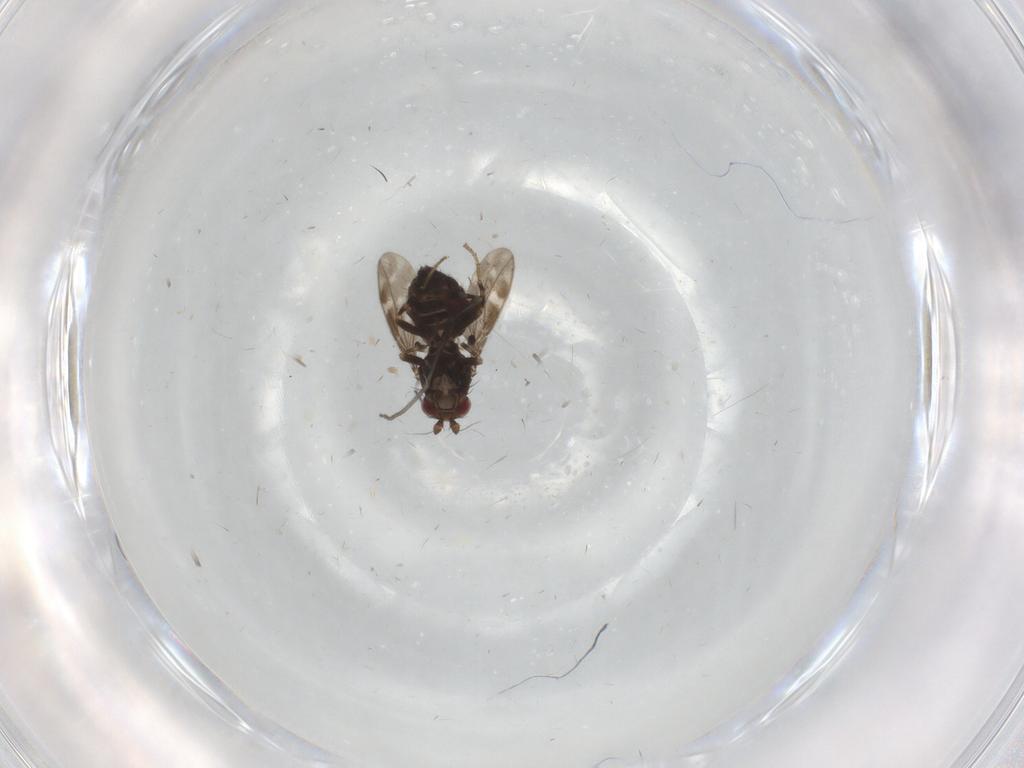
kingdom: Animalia
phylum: Arthropoda
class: Insecta
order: Diptera
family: Sphaeroceridae
